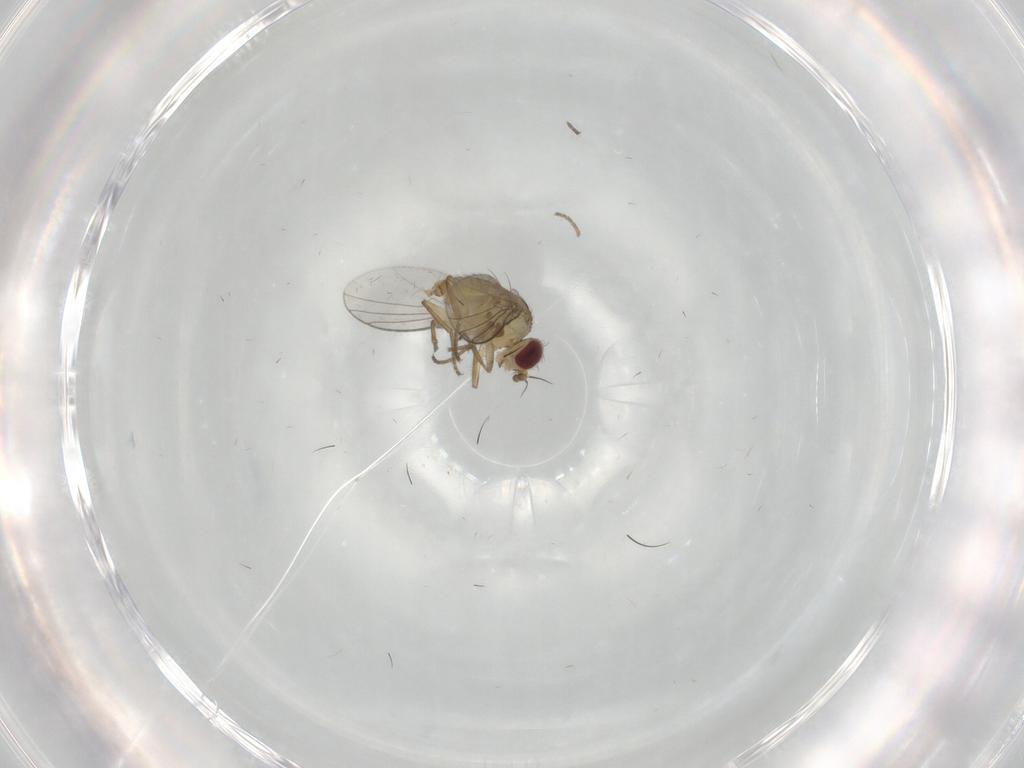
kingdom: Animalia
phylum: Arthropoda
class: Insecta
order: Diptera
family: Agromyzidae
